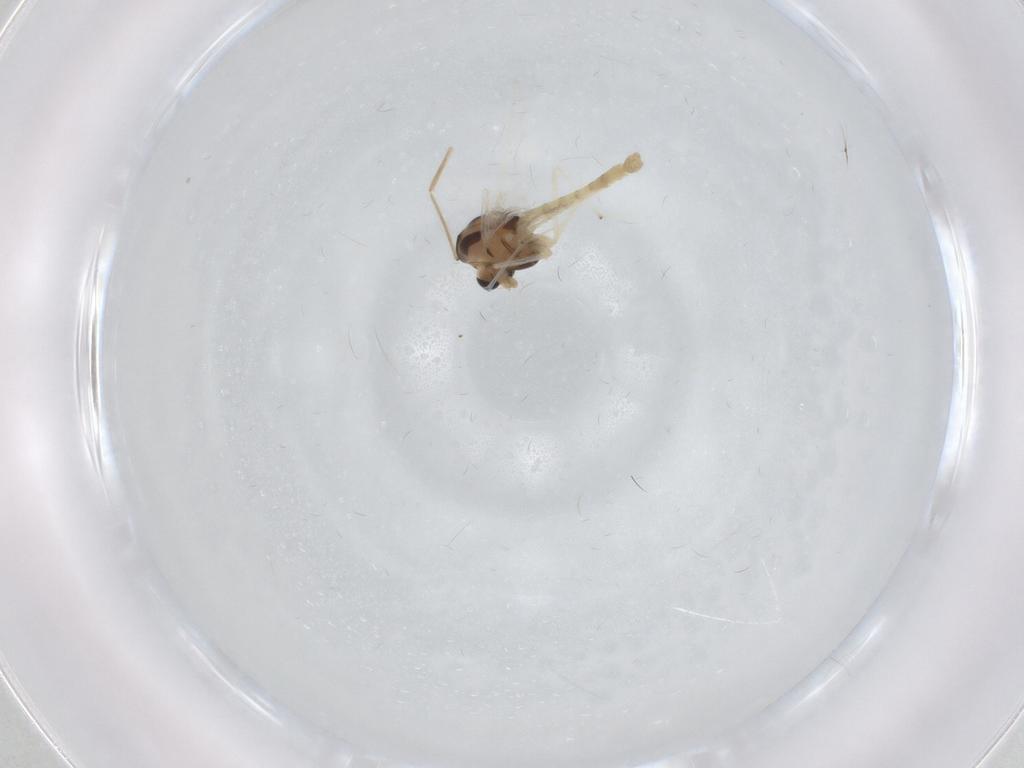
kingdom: Animalia
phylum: Arthropoda
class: Insecta
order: Diptera
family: Chironomidae
